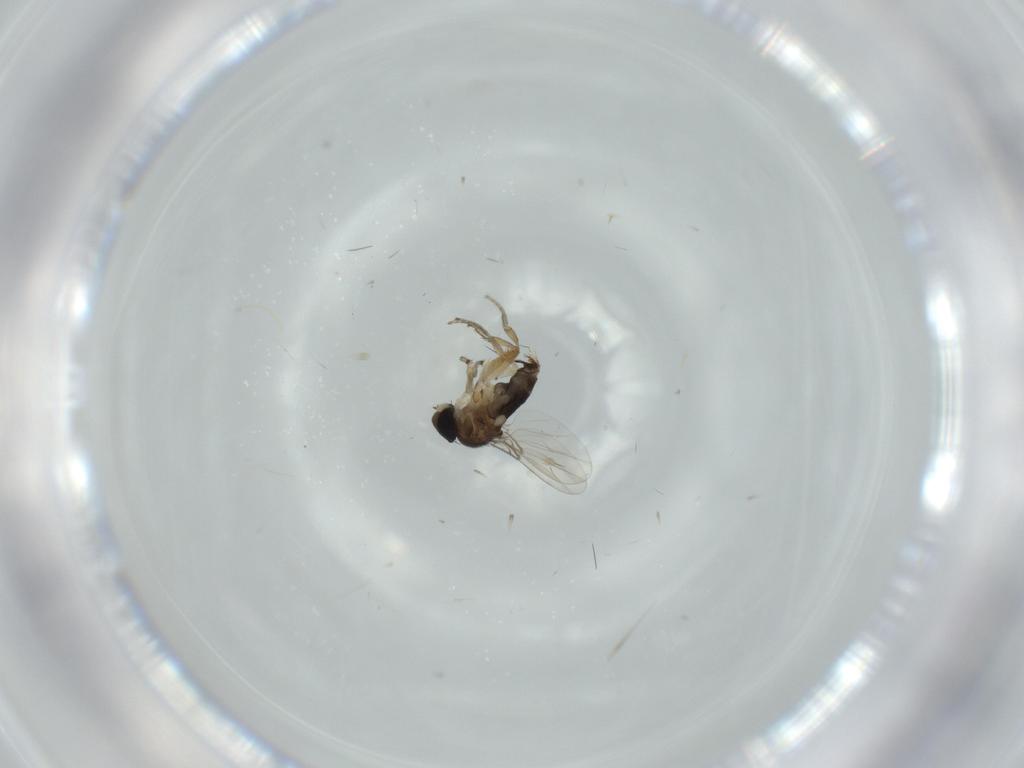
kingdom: Animalia
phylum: Arthropoda
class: Insecta
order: Diptera
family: Phoridae
